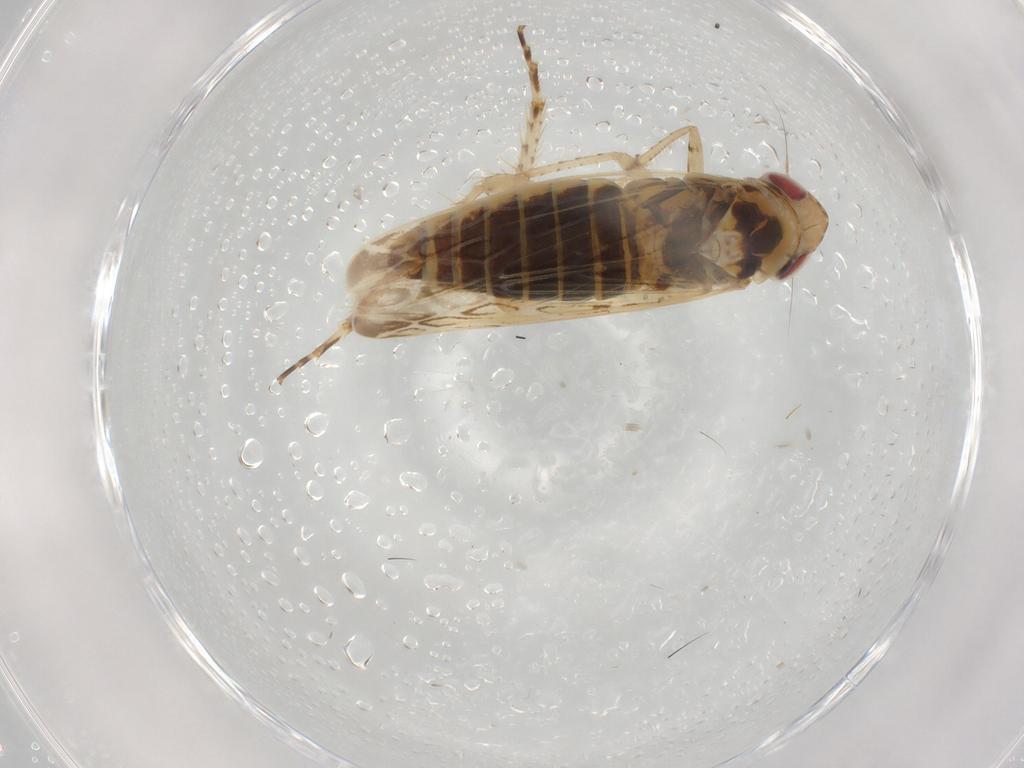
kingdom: Animalia
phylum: Arthropoda
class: Insecta
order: Hemiptera
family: Cicadellidae
